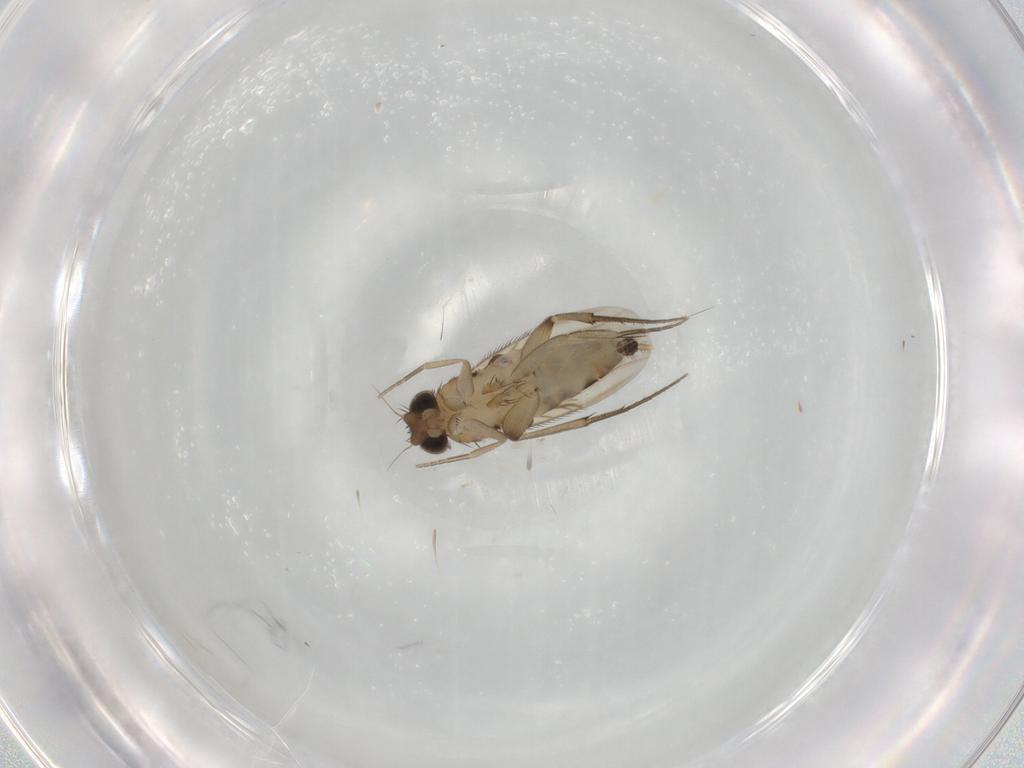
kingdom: Animalia
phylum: Arthropoda
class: Insecta
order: Diptera
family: Phoridae
